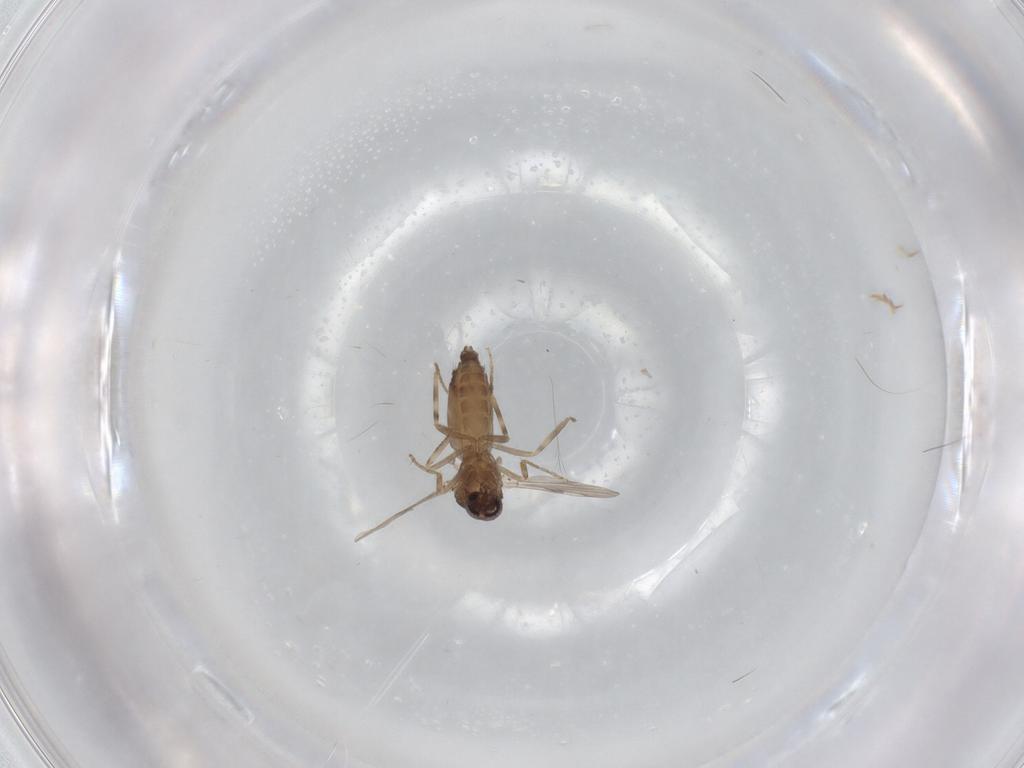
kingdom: Animalia
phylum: Arthropoda
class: Insecta
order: Diptera
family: Ceratopogonidae
